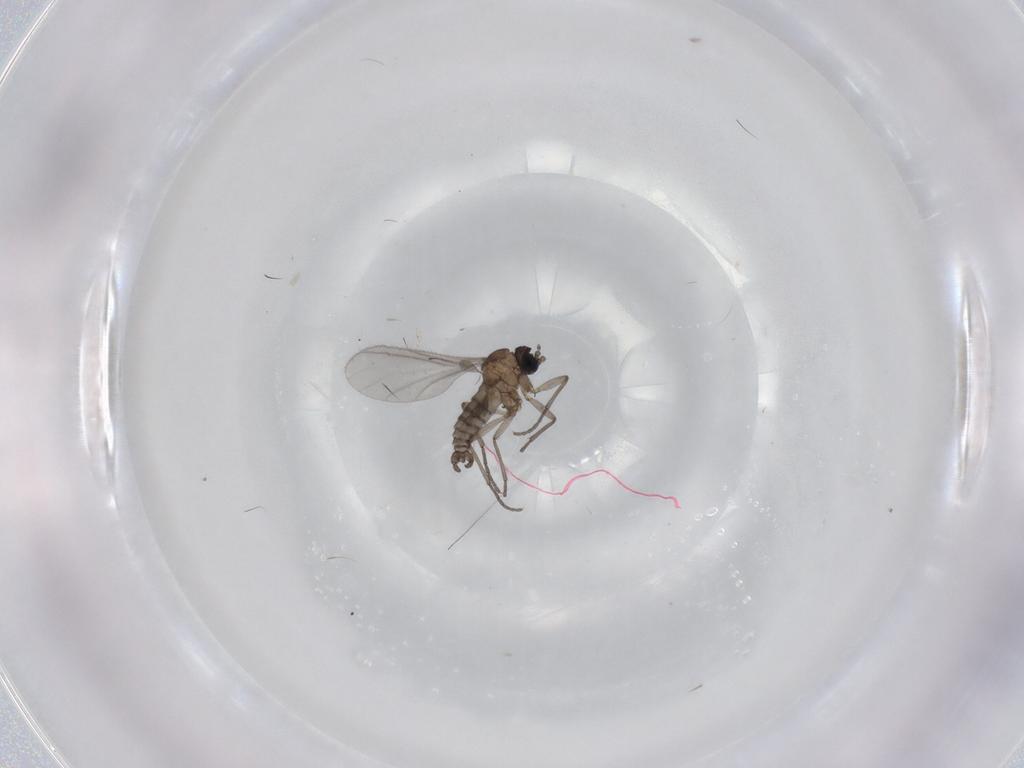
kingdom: Animalia
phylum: Arthropoda
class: Insecta
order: Diptera
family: Sciaridae
